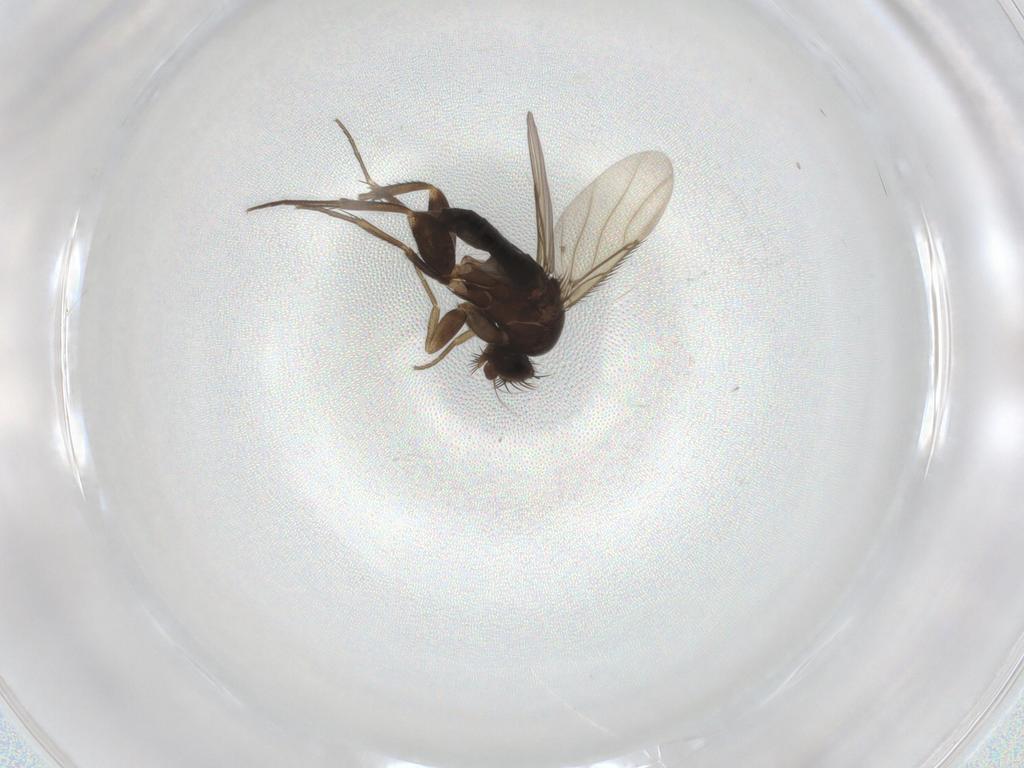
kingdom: Animalia
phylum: Arthropoda
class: Insecta
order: Diptera
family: Phoridae
